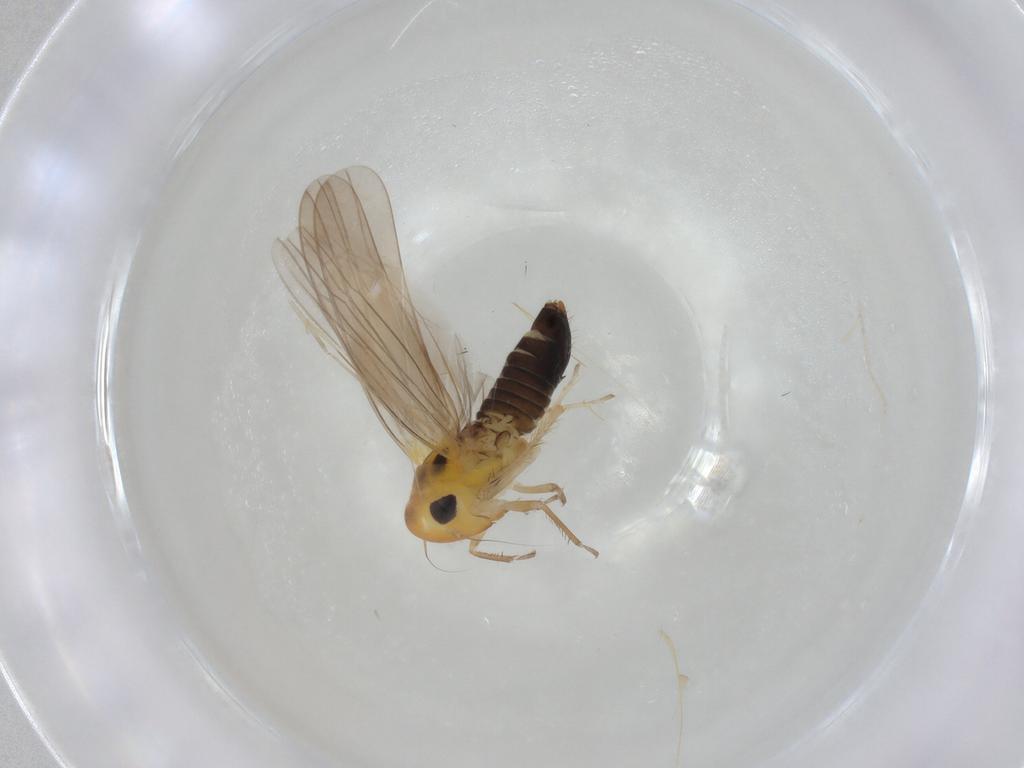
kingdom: Animalia
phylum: Arthropoda
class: Insecta
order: Hemiptera
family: Cicadellidae
